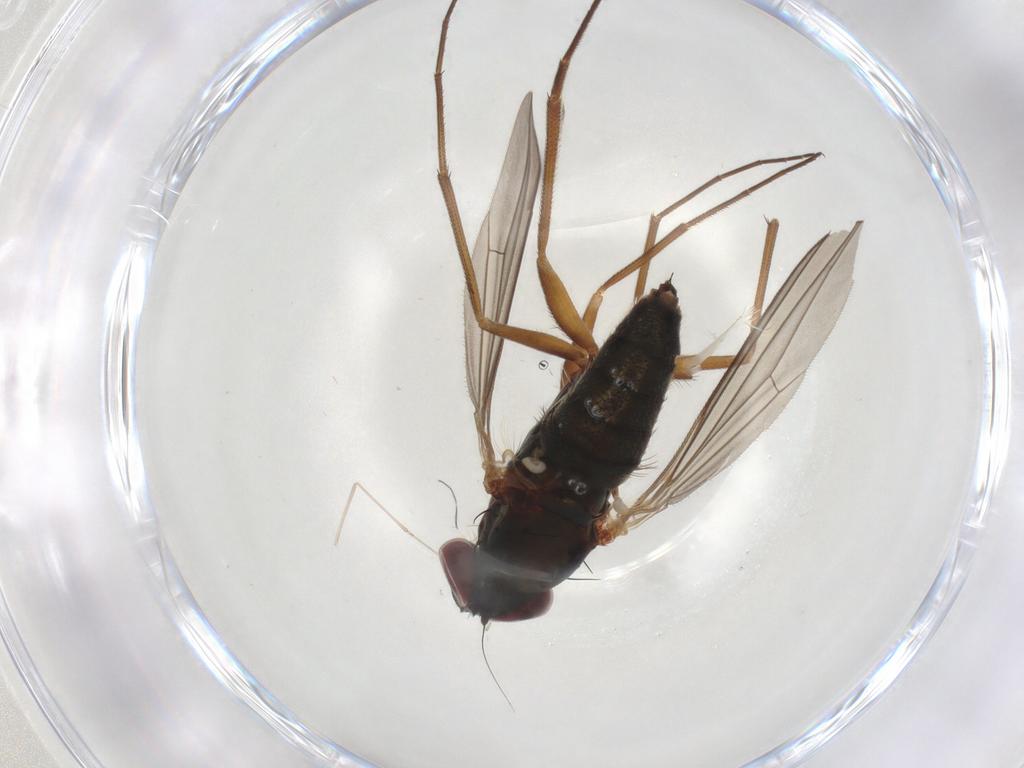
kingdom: Animalia
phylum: Arthropoda
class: Insecta
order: Diptera
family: Dolichopodidae
